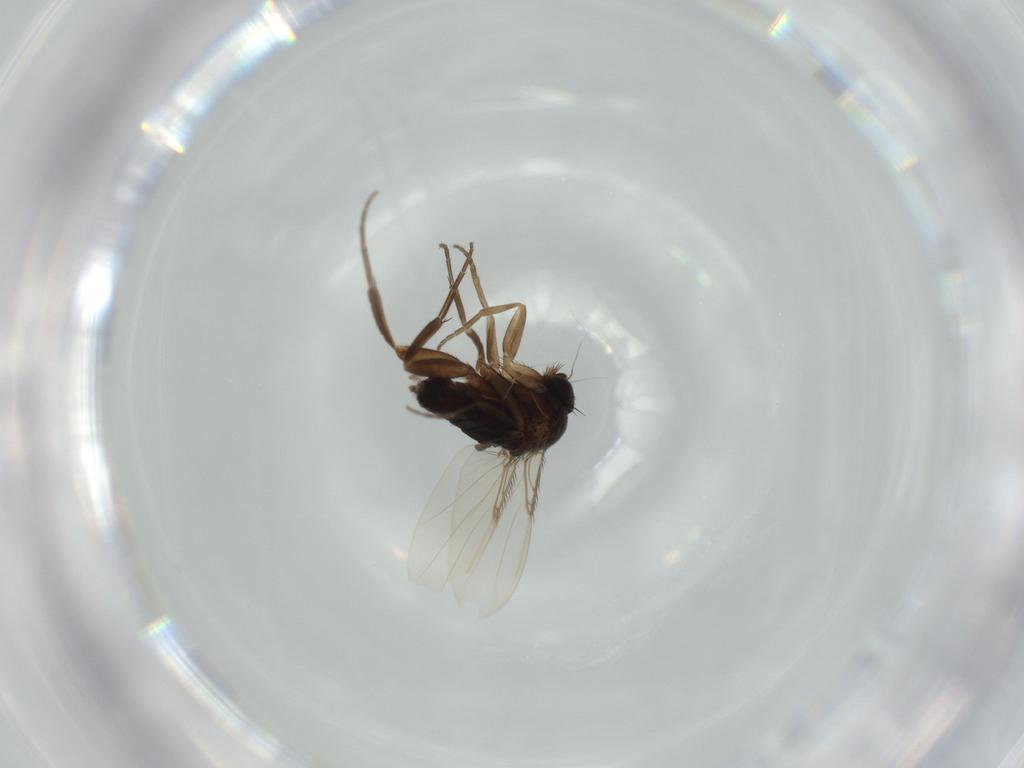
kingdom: Animalia
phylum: Arthropoda
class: Insecta
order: Diptera
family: Phoridae
